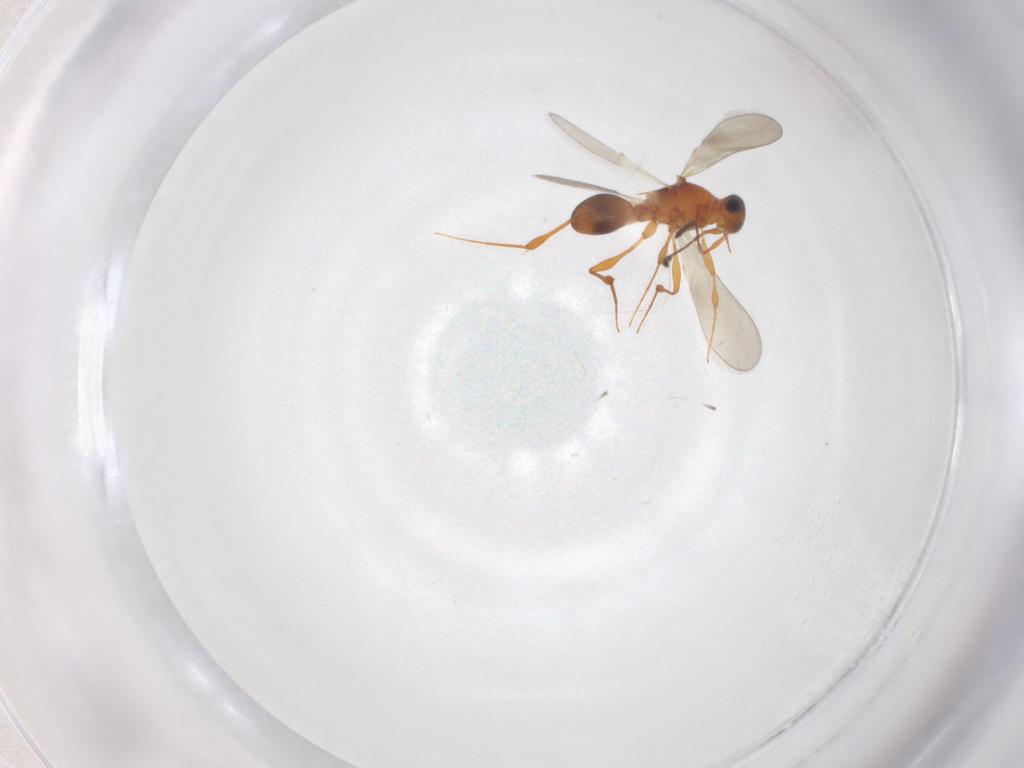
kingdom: Animalia
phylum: Arthropoda
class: Insecta
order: Hymenoptera
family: Platygastridae
